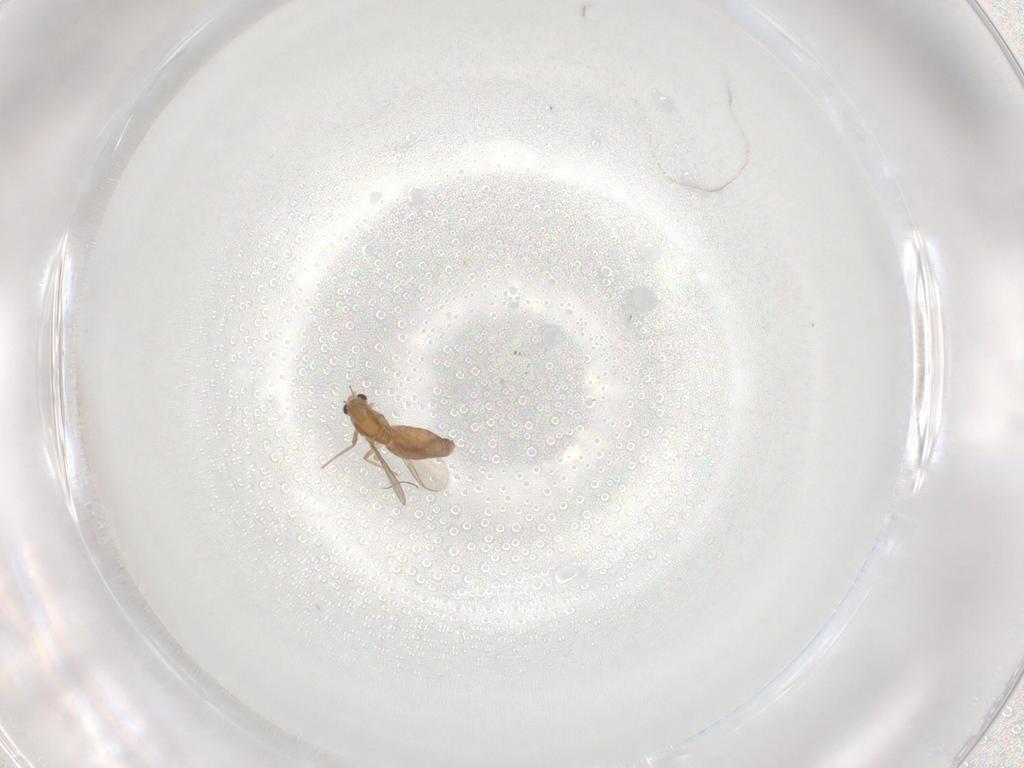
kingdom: Animalia
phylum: Arthropoda
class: Insecta
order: Diptera
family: Chironomidae
